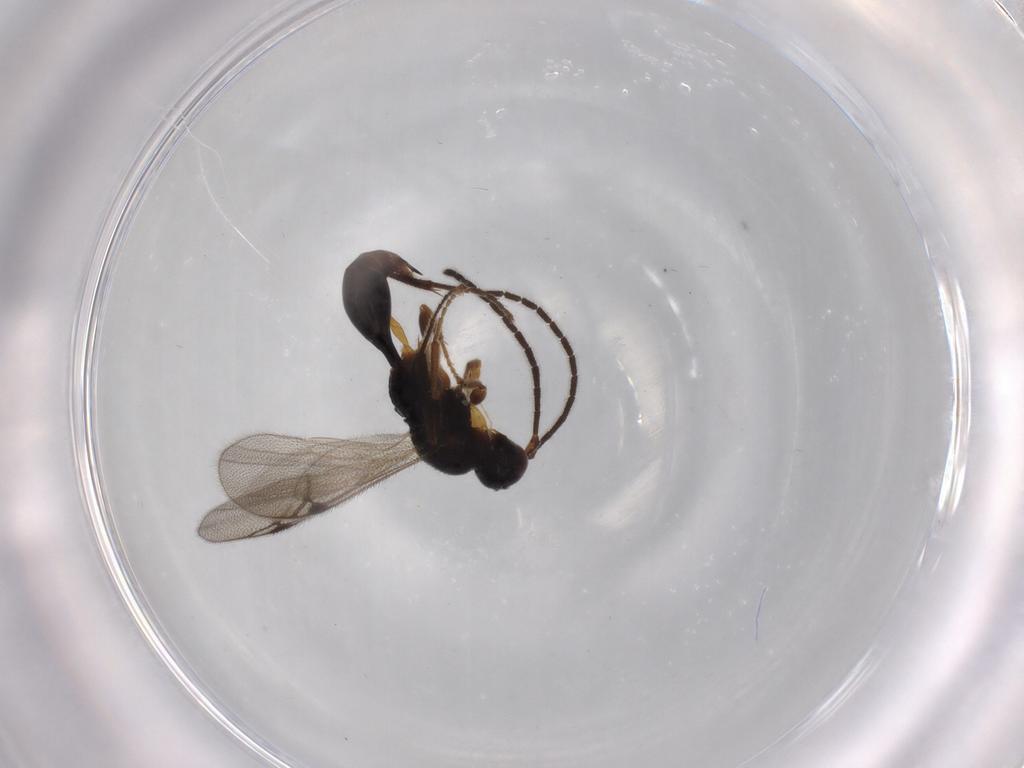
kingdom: Animalia
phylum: Arthropoda
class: Insecta
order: Hymenoptera
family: Proctotrupidae
